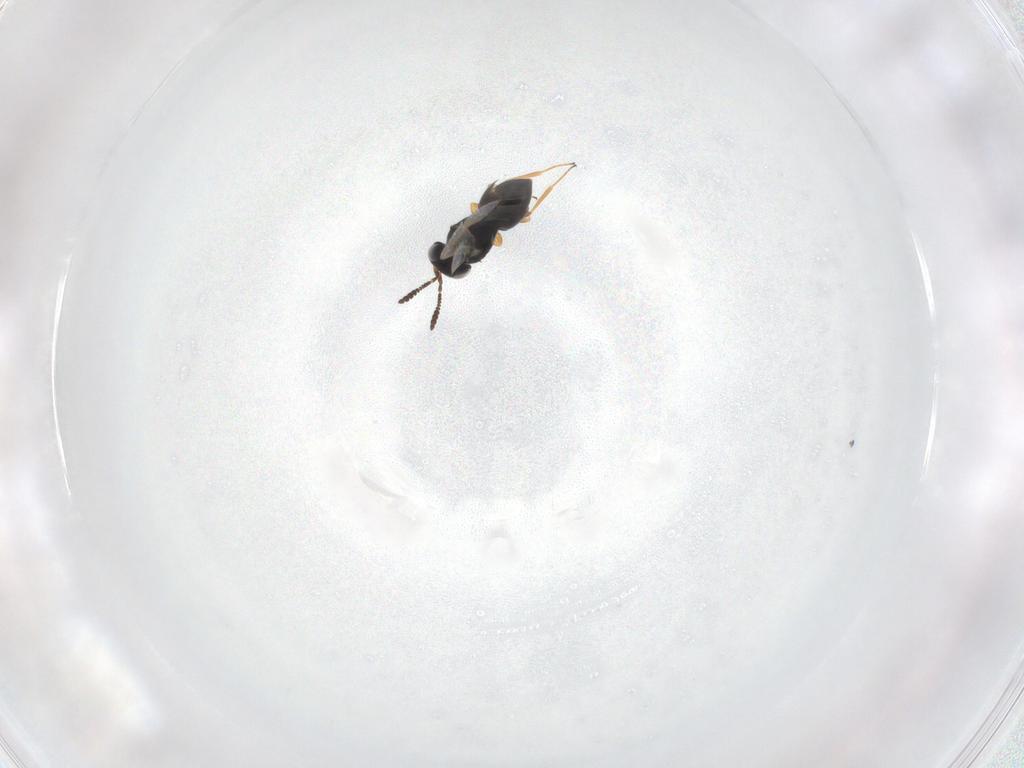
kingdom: Animalia
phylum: Arthropoda
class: Insecta
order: Hymenoptera
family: Scelionidae
